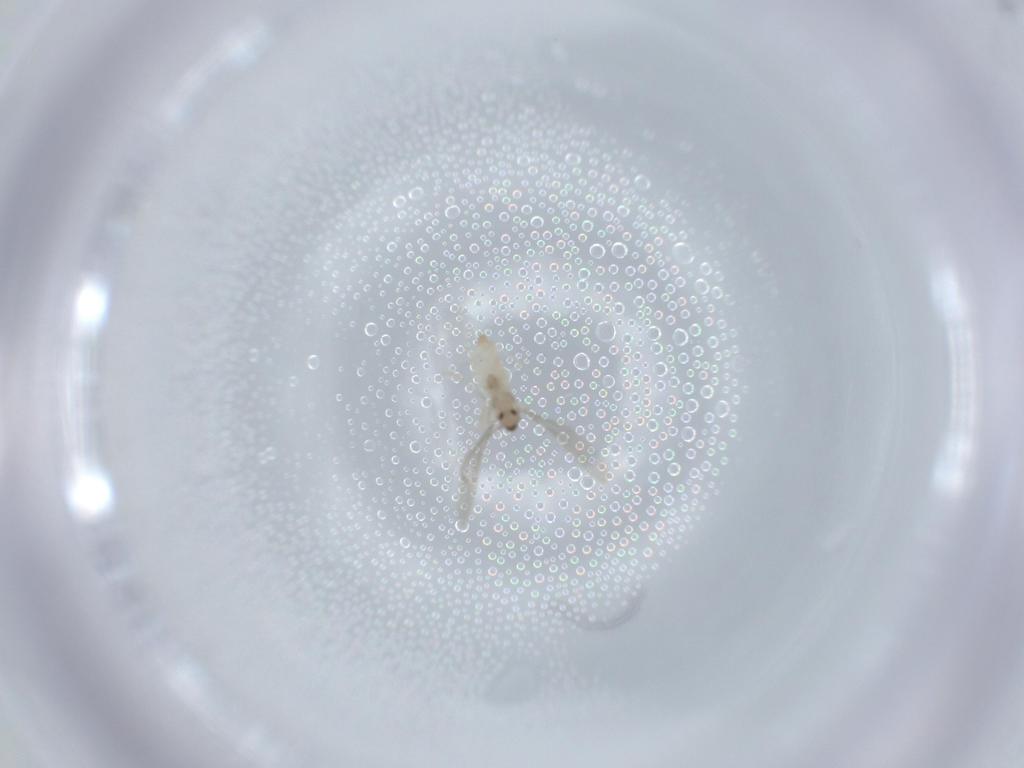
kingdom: Animalia
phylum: Arthropoda
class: Insecta
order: Diptera
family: Cecidomyiidae
